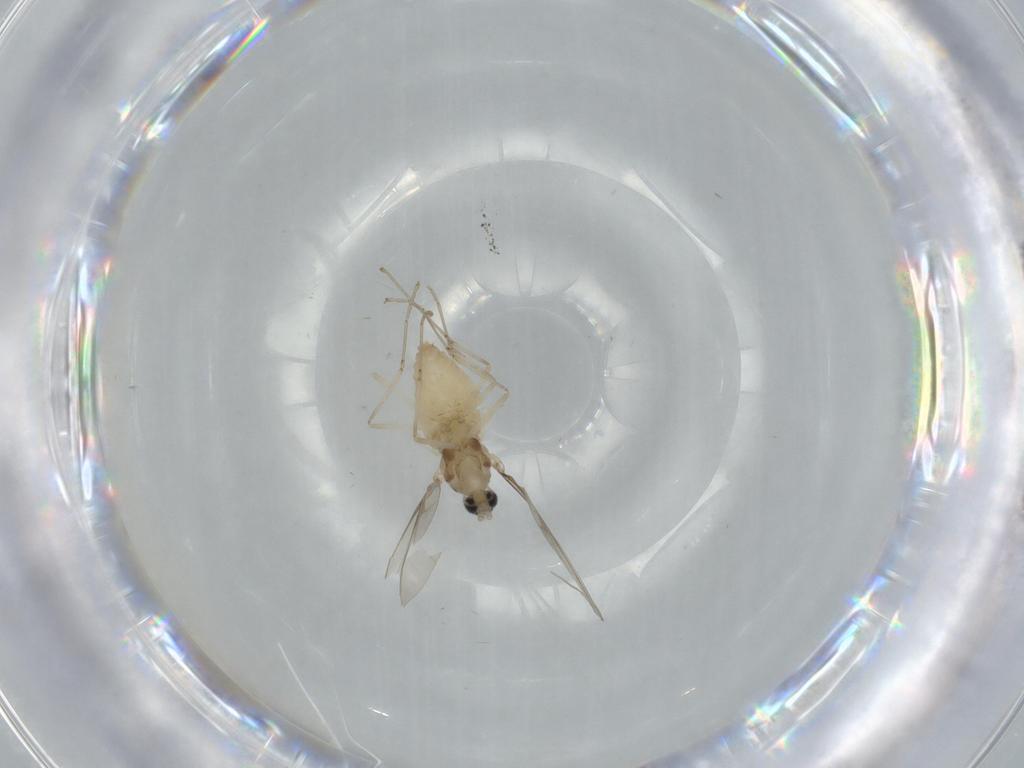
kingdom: Animalia
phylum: Arthropoda
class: Insecta
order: Diptera
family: Cecidomyiidae
